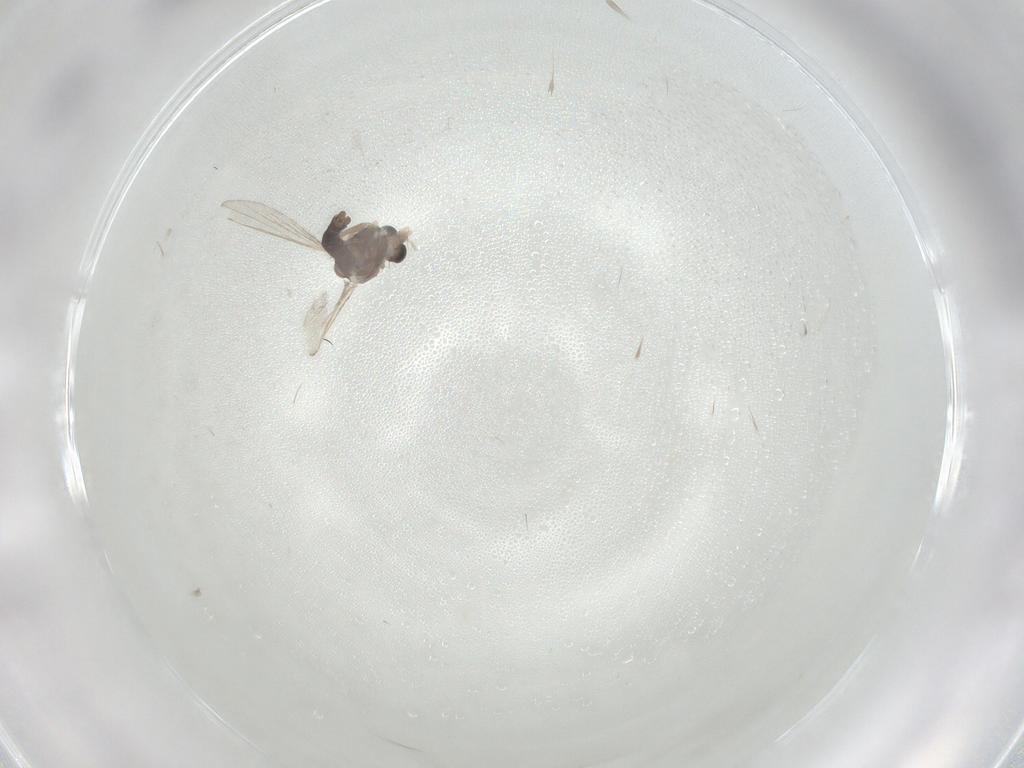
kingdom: Animalia
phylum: Arthropoda
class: Insecta
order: Diptera
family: Chironomidae
